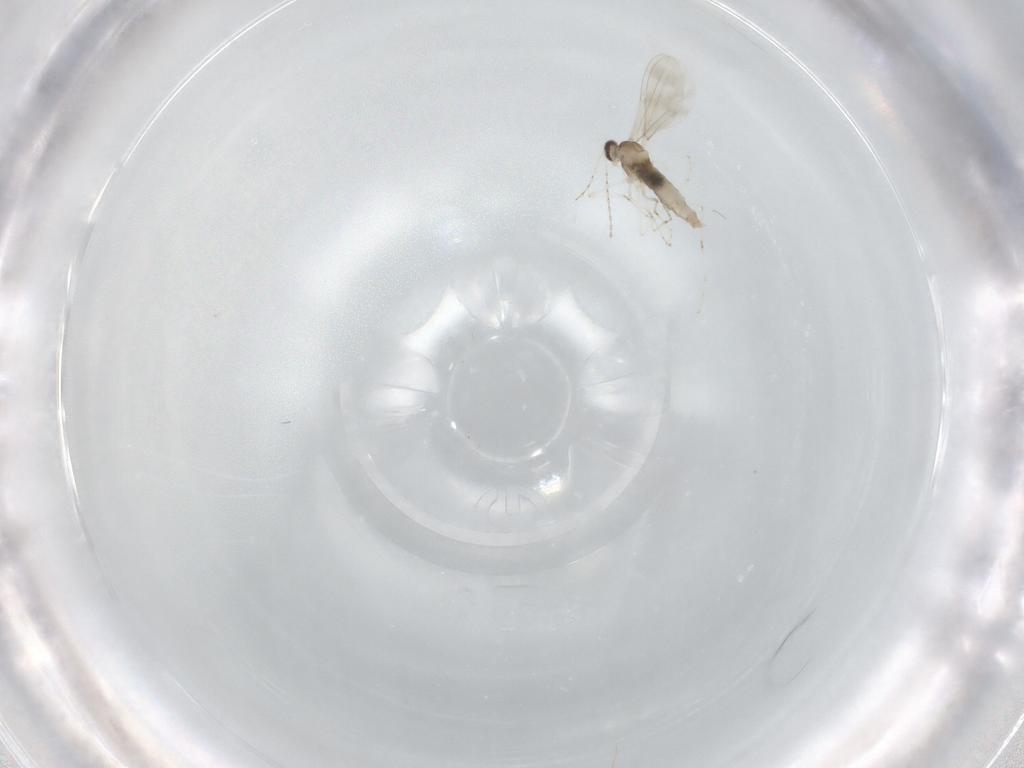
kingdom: Animalia
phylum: Arthropoda
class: Insecta
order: Diptera
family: Cecidomyiidae
